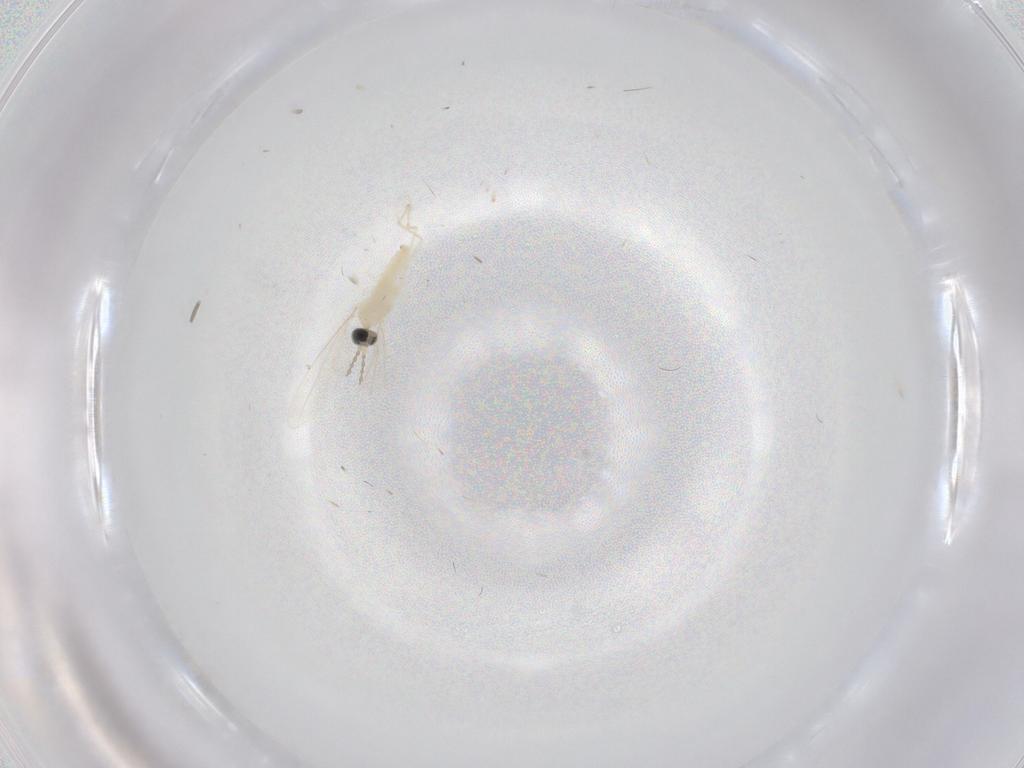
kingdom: Animalia
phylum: Arthropoda
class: Insecta
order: Diptera
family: Cecidomyiidae
